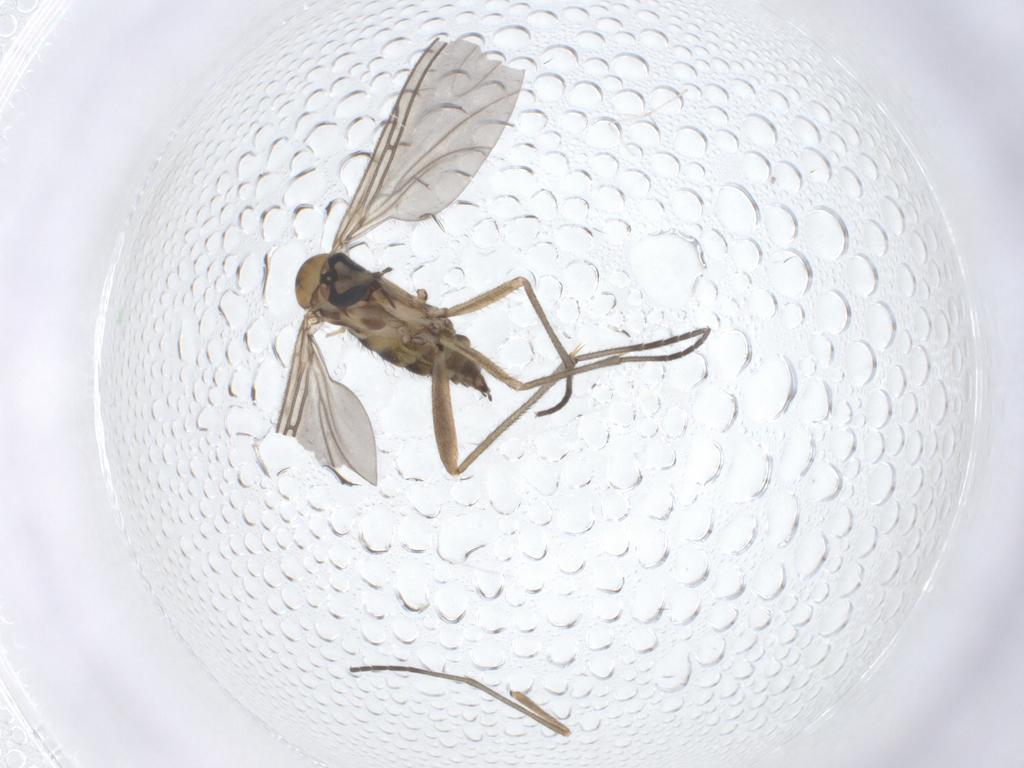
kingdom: Animalia
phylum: Arthropoda
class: Insecta
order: Diptera
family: Sciaridae
